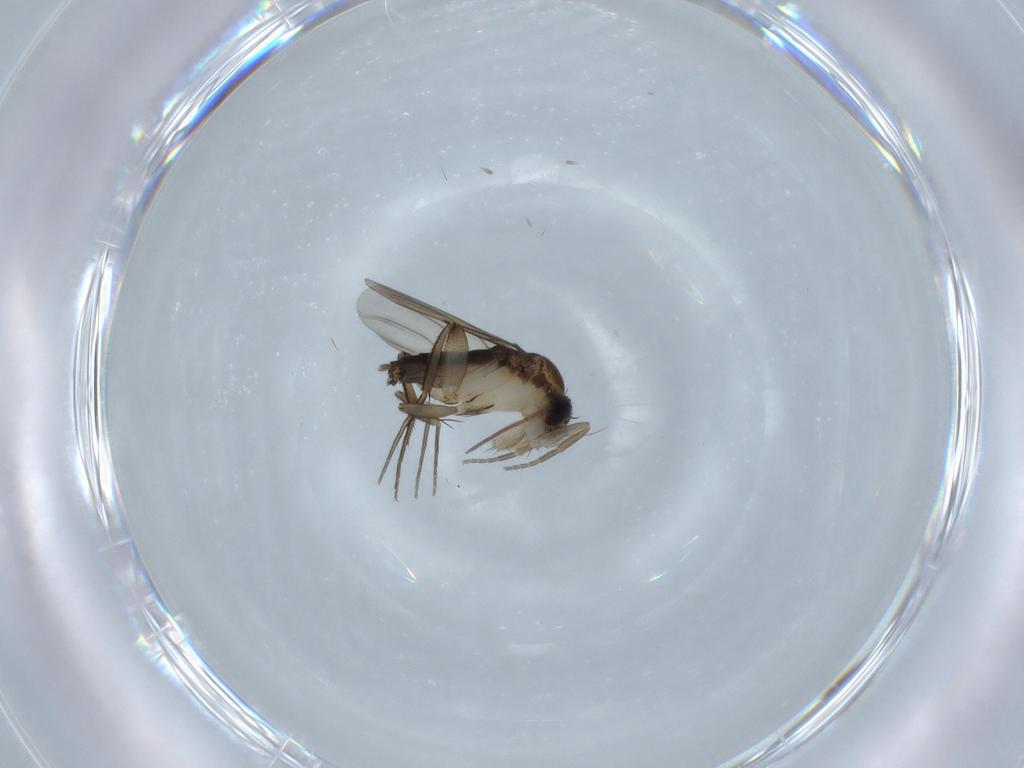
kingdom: Animalia
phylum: Arthropoda
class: Insecta
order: Diptera
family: Phoridae
